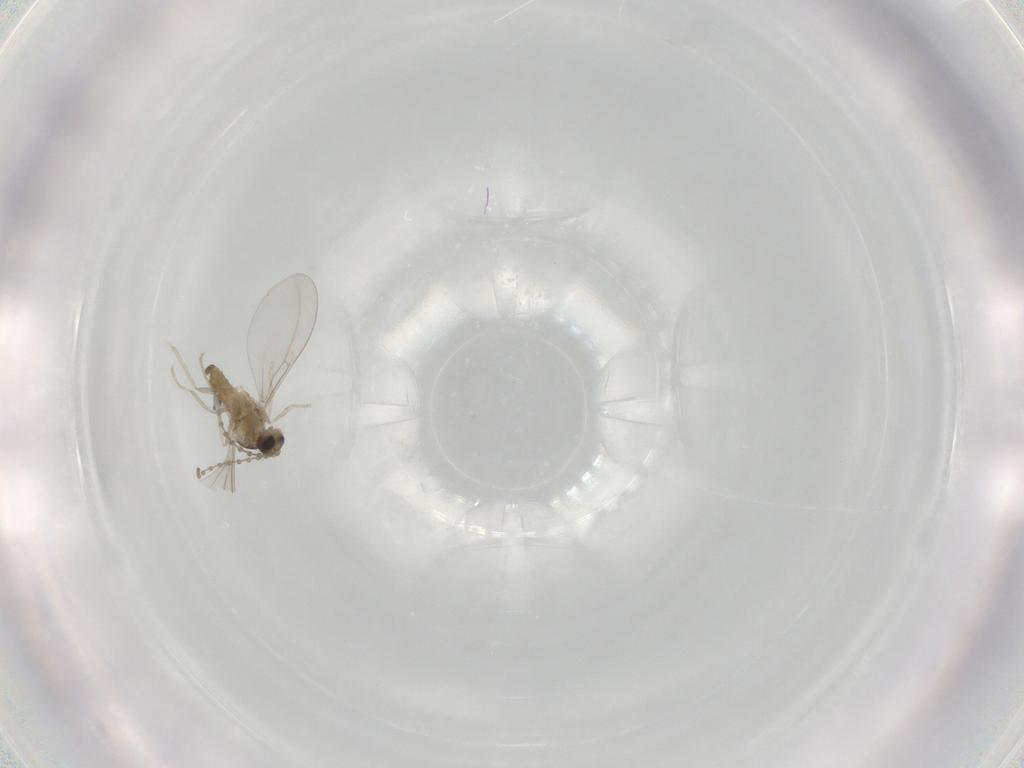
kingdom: Animalia
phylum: Arthropoda
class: Insecta
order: Diptera
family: Cecidomyiidae
